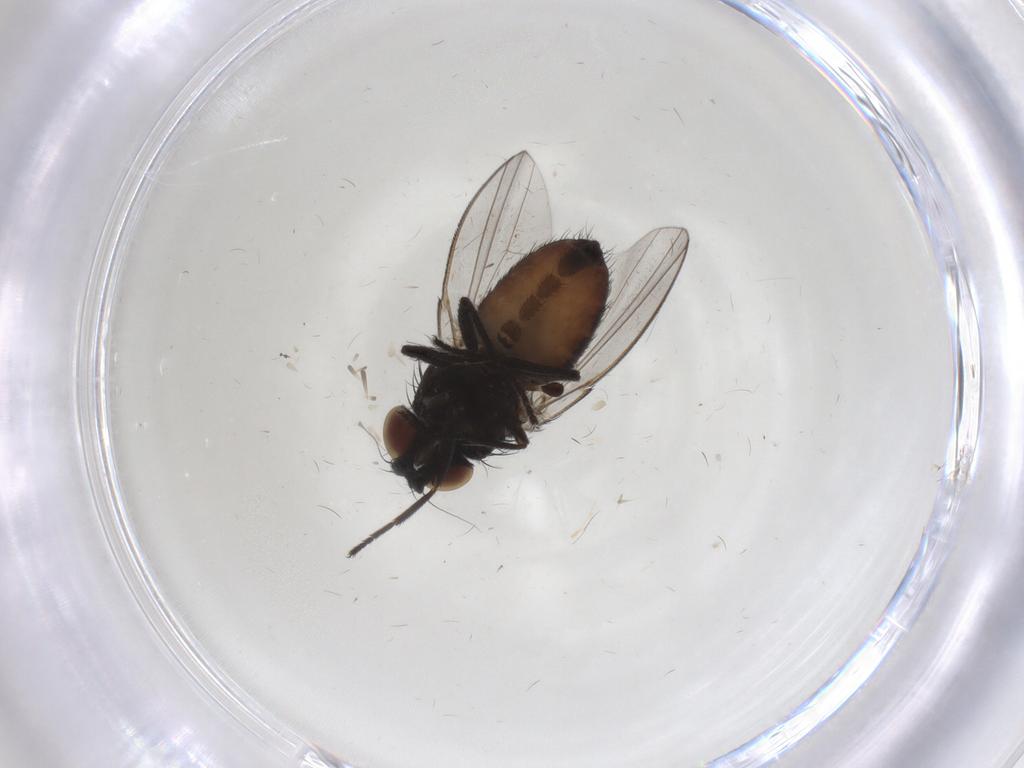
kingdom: Animalia
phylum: Arthropoda
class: Insecta
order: Diptera
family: Milichiidae
